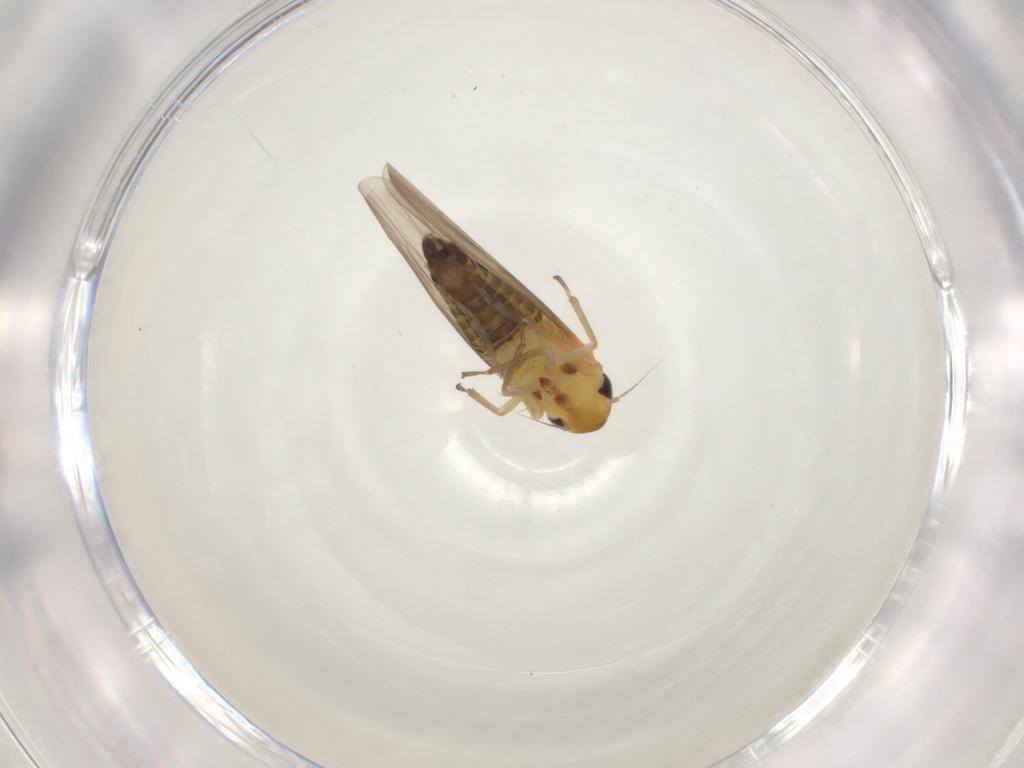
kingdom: Animalia
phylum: Arthropoda
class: Insecta
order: Hemiptera
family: Cicadellidae
